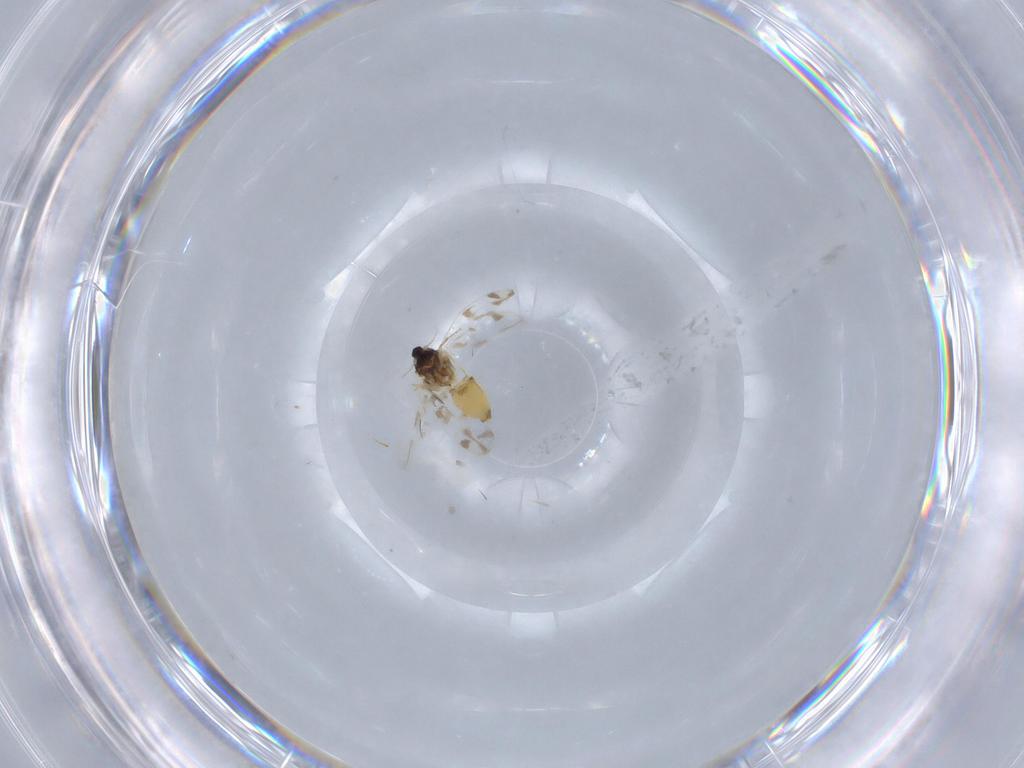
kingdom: Animalia
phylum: Arthropoda
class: Insecta
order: Hemiptera
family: Aleyrodidae
